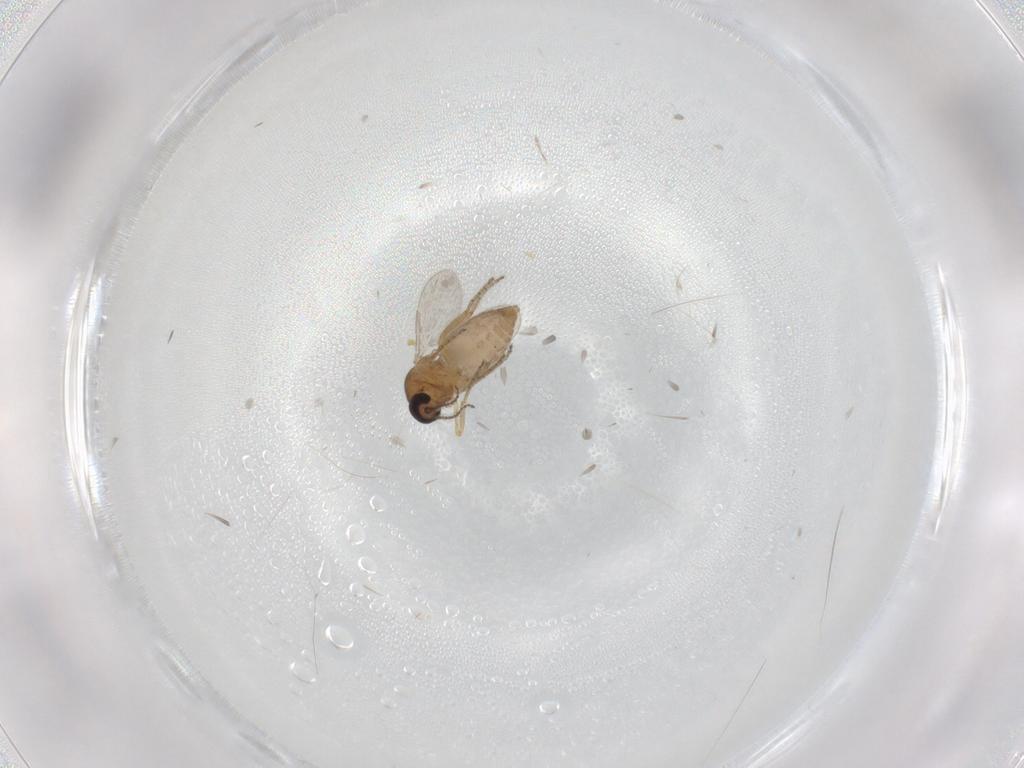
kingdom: Animalia
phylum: Arthropoda
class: Insecta
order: Diptera
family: Ceratopogonidae
